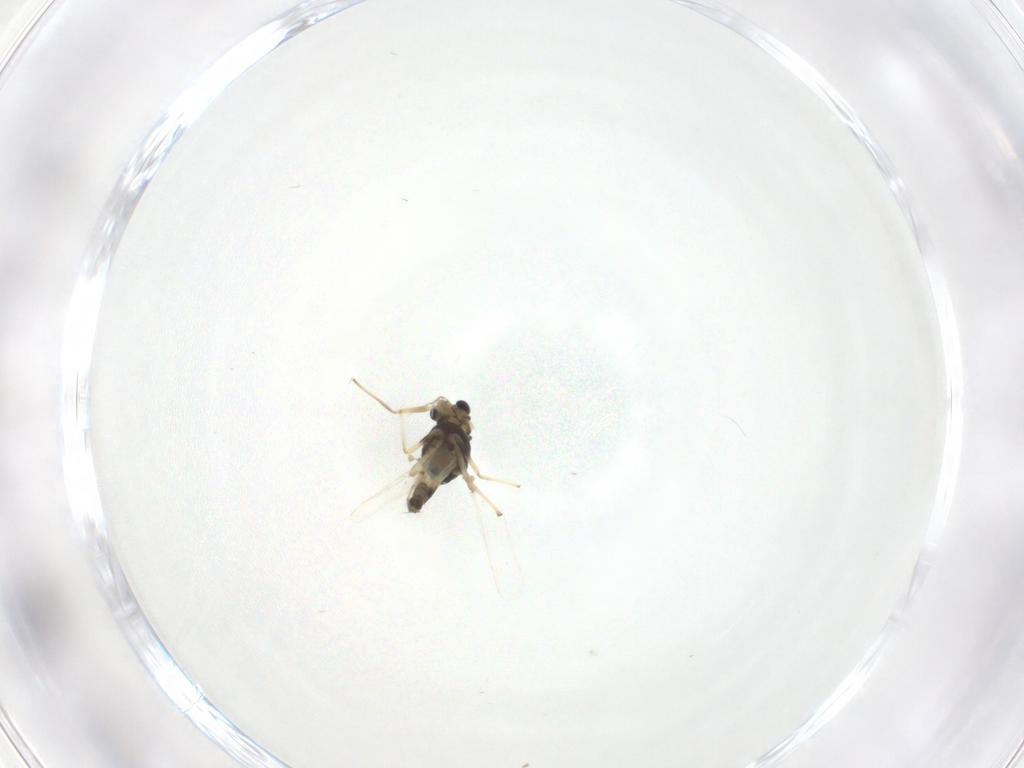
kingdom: Animalia
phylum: Arthropoda
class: Insecta
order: Diptera
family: Chironomidae
